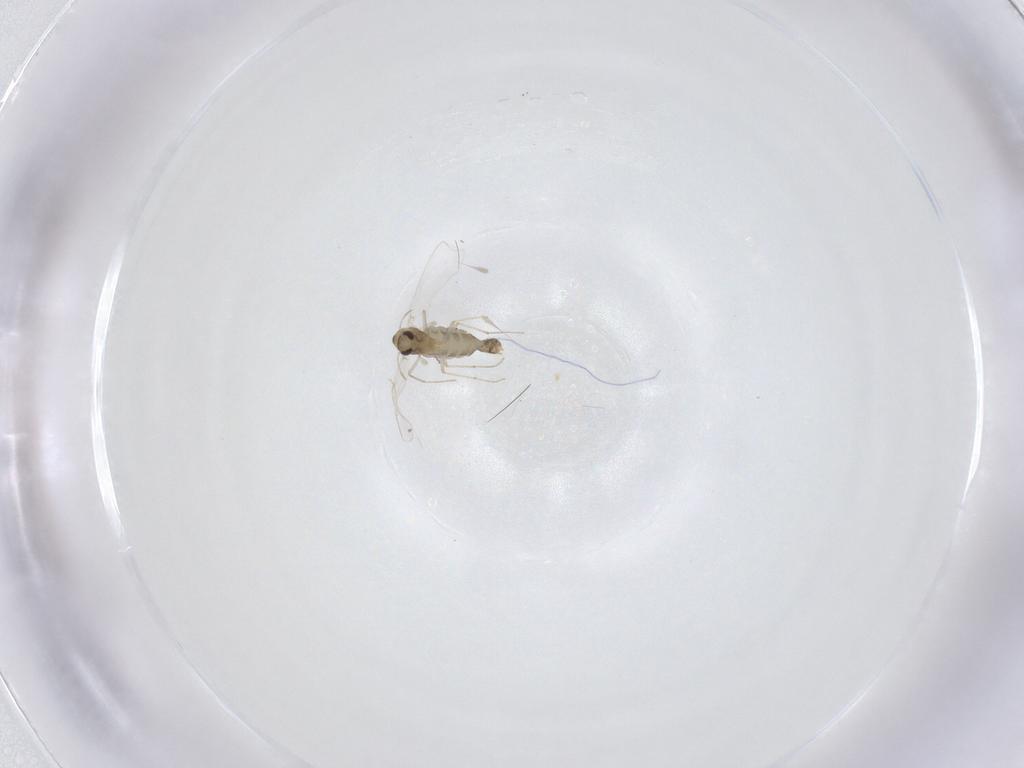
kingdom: Animalia
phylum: Arthropoda
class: Insecta
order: Diptera
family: Chironomidae
